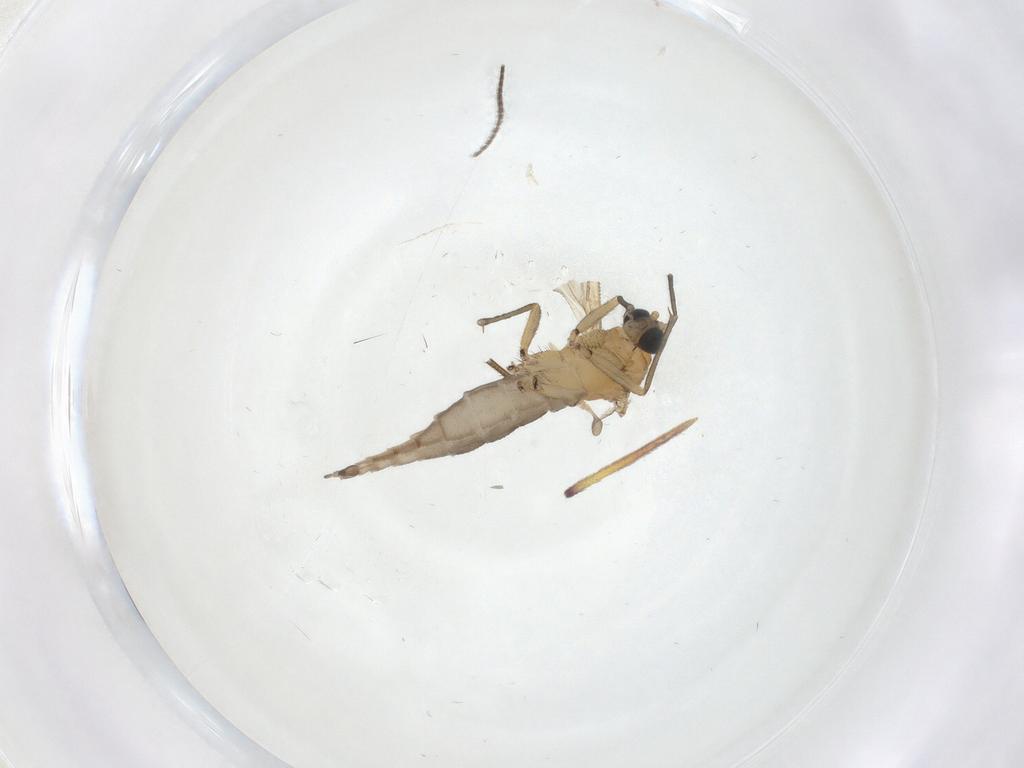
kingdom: Animalia
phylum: Arthropoda
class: Insecta
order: Diptera
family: Sciaridae
